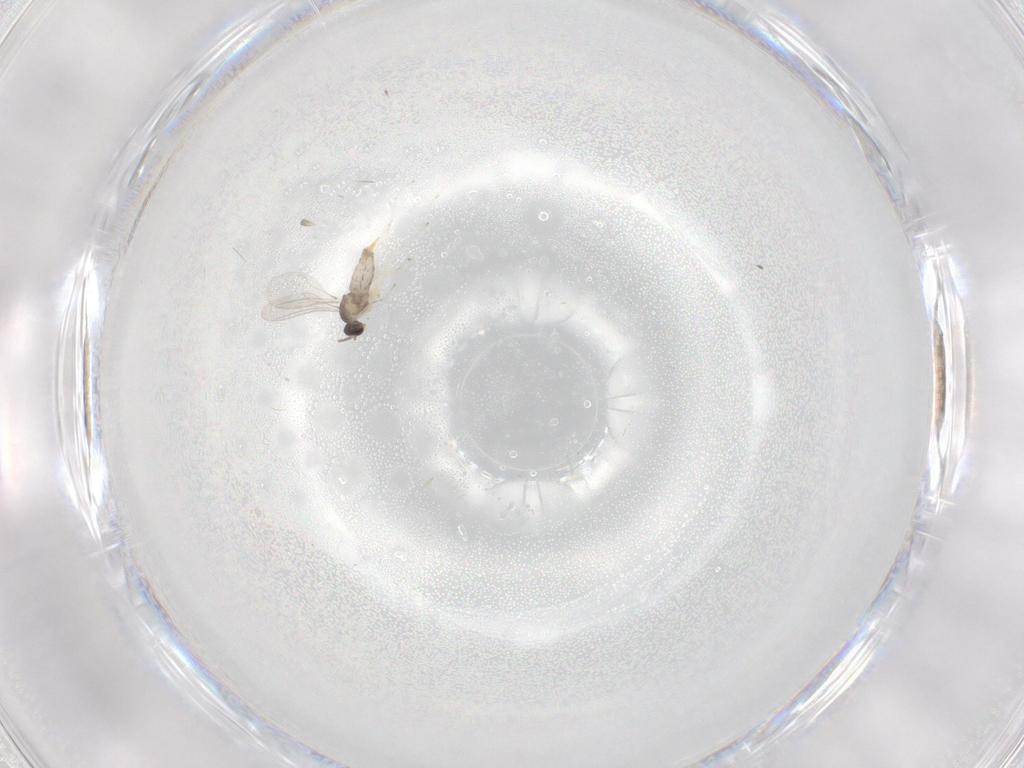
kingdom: Animalia
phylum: Arthropoda
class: Insecta
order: Diptera
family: Cecidomyiidae
